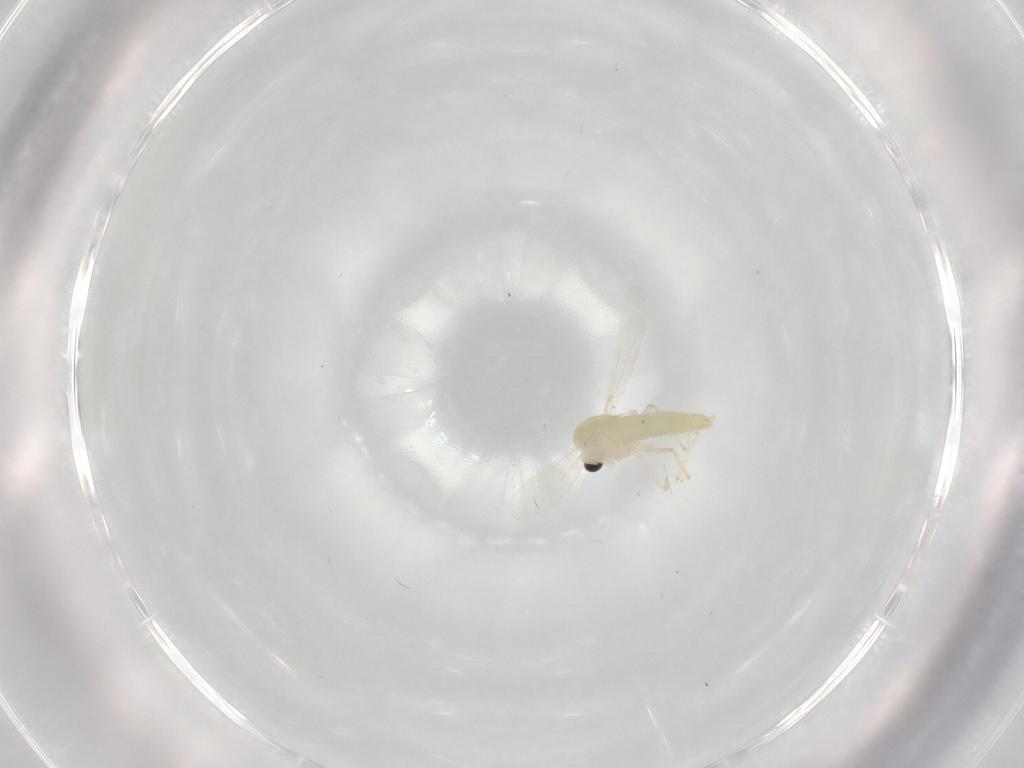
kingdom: Animalia
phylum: Arthropoda
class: Insecta
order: Diptera
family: Chironomidae
